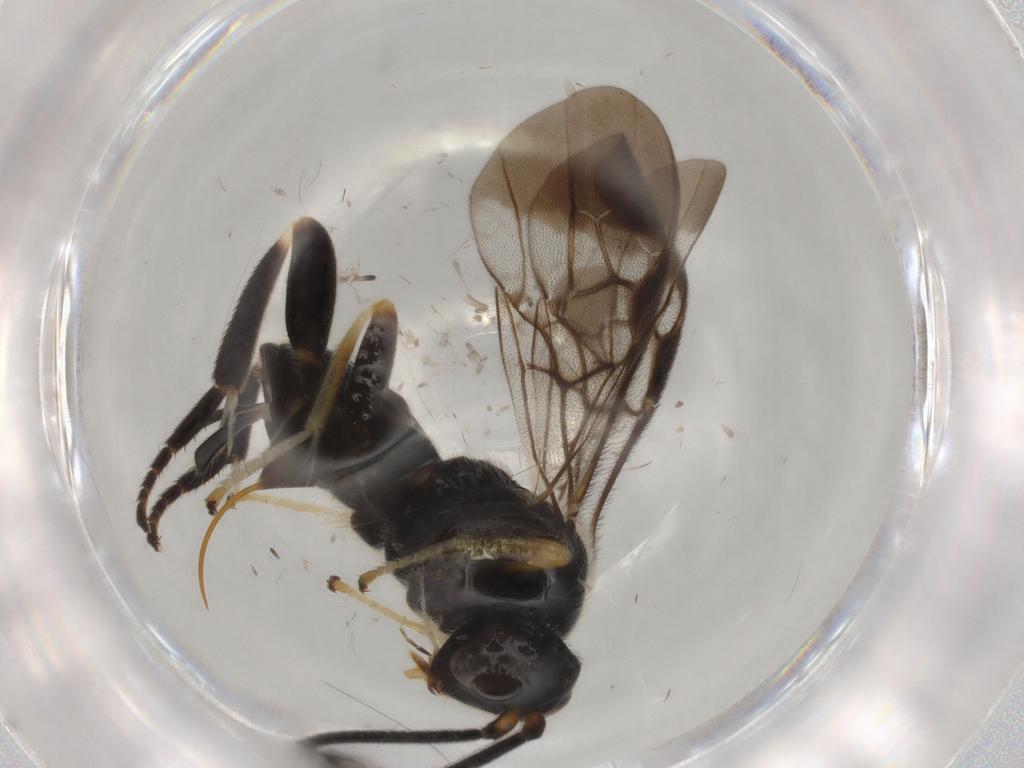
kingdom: Animalia
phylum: Arthropoda
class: Insecta
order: Hymenoptera
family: Braconidae
